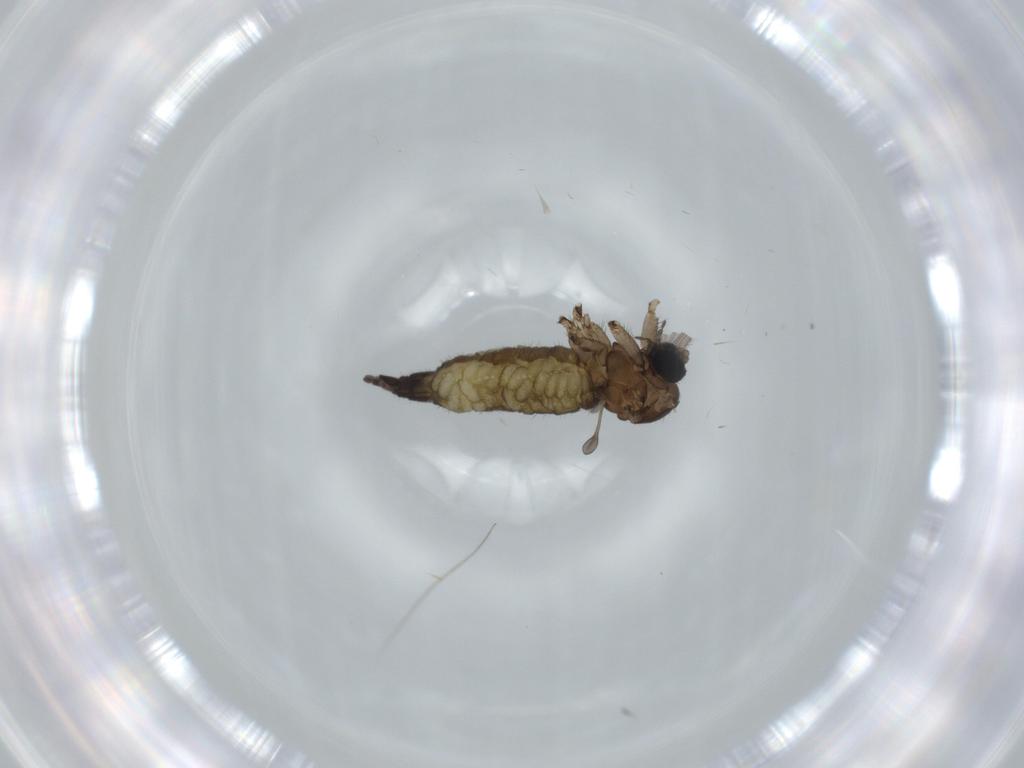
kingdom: Animalia
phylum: Arthropoda
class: Insecta
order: Diptera
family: Sciaridae
